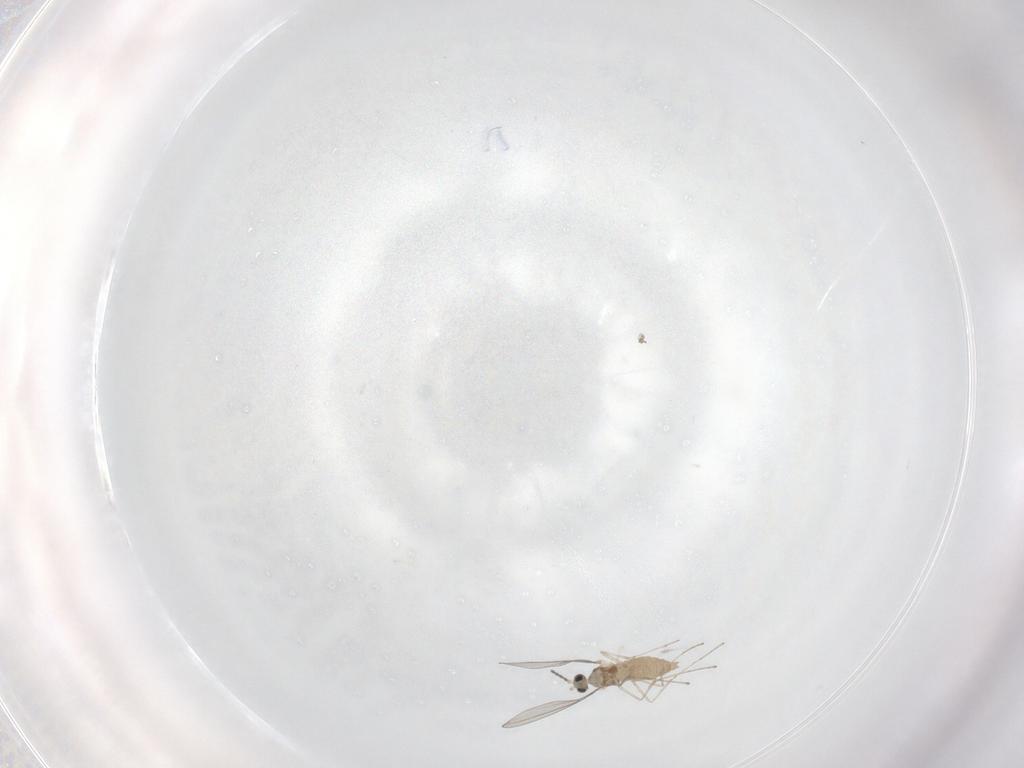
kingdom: Animalia
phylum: Arthropoda
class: Insecta
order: Diptera
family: Cecidomyiidae
